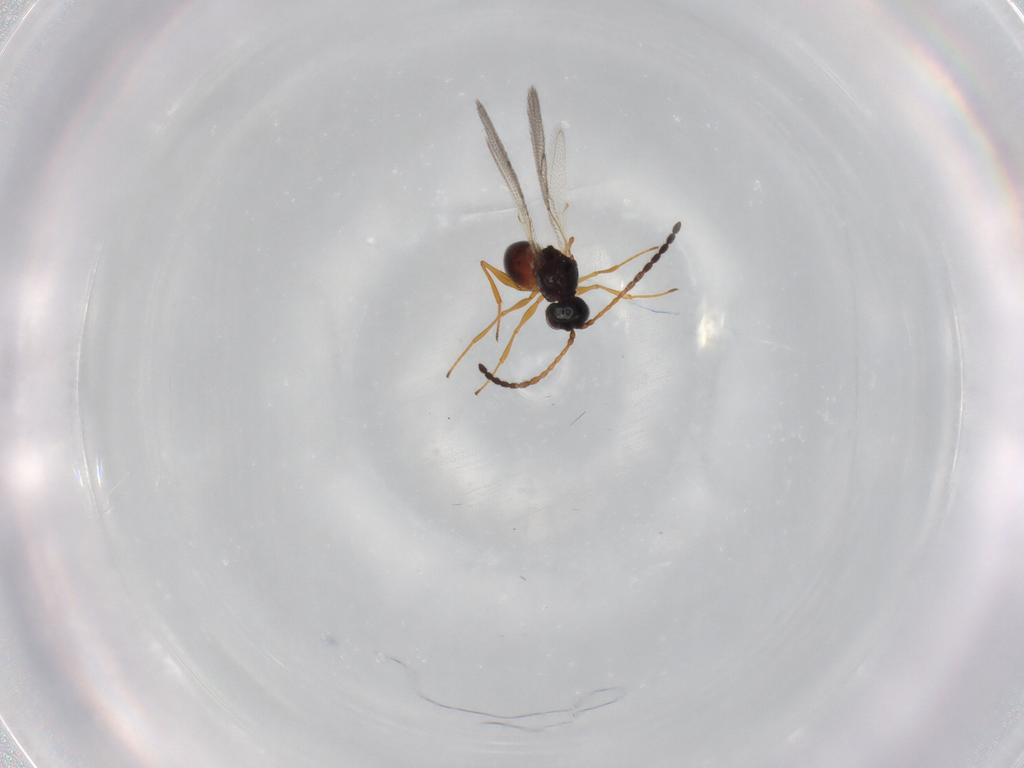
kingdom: Animalia
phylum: Arthropoda
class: Insecta
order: Hymenoptera
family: Figitidae
